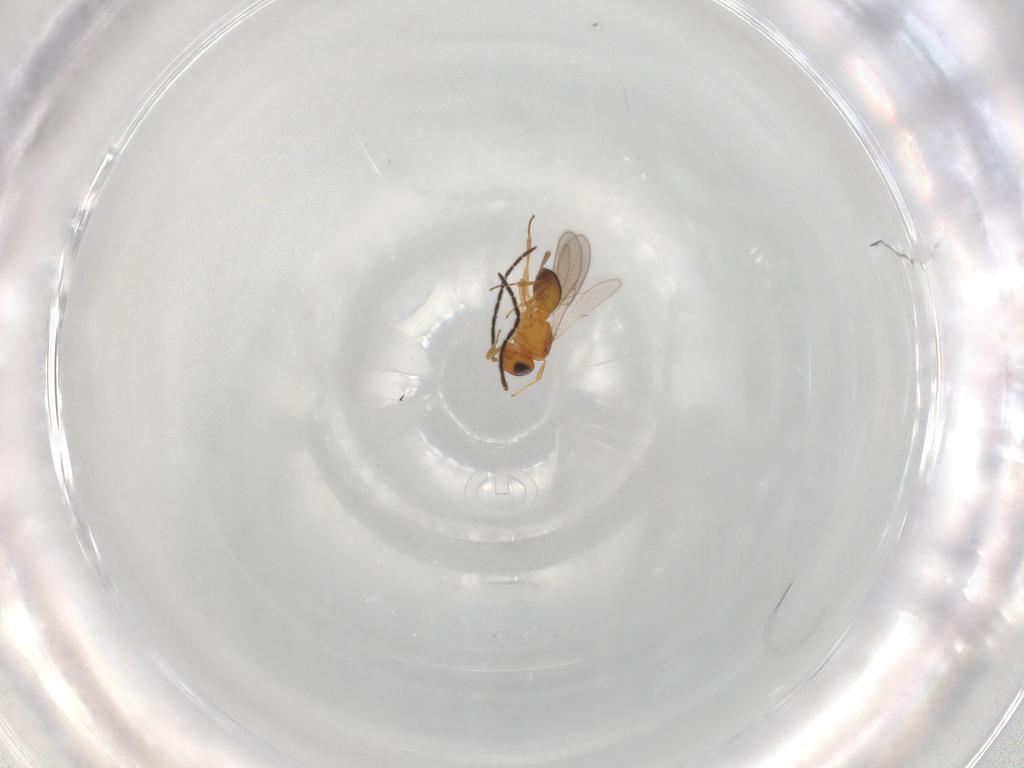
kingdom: Animalia
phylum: Arthropoda
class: Insecta
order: Hymenoptera
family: Scelionidae
